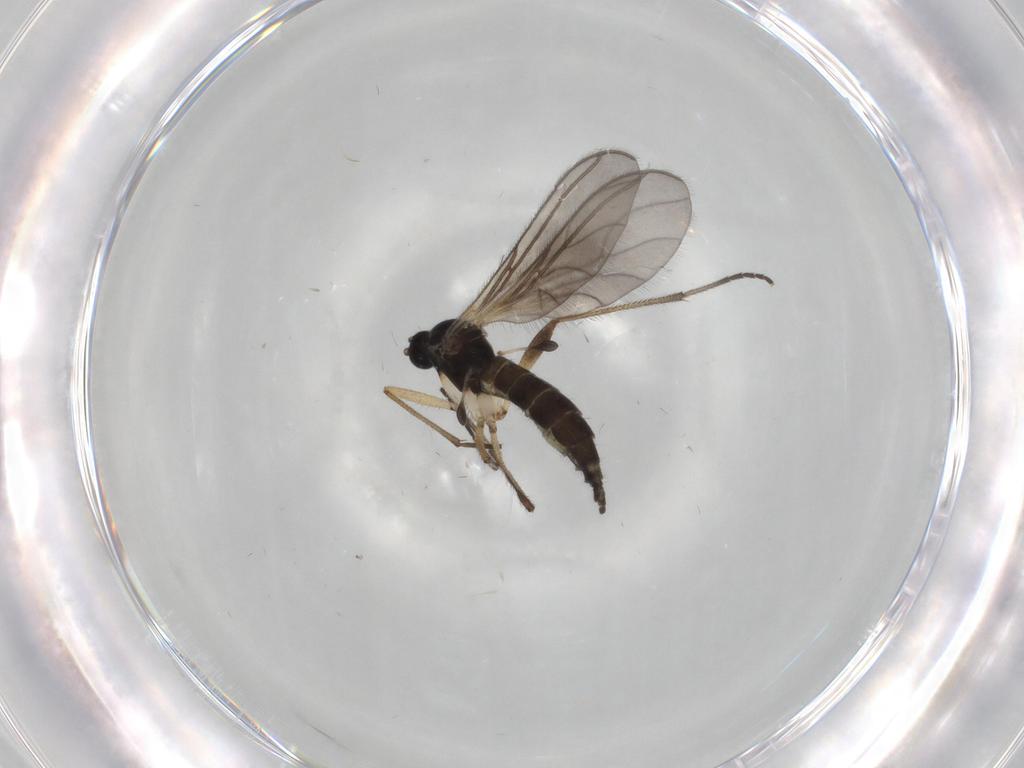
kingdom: Animalia
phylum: Arthropoda
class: Insecta
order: Diptera
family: Sciaridae
